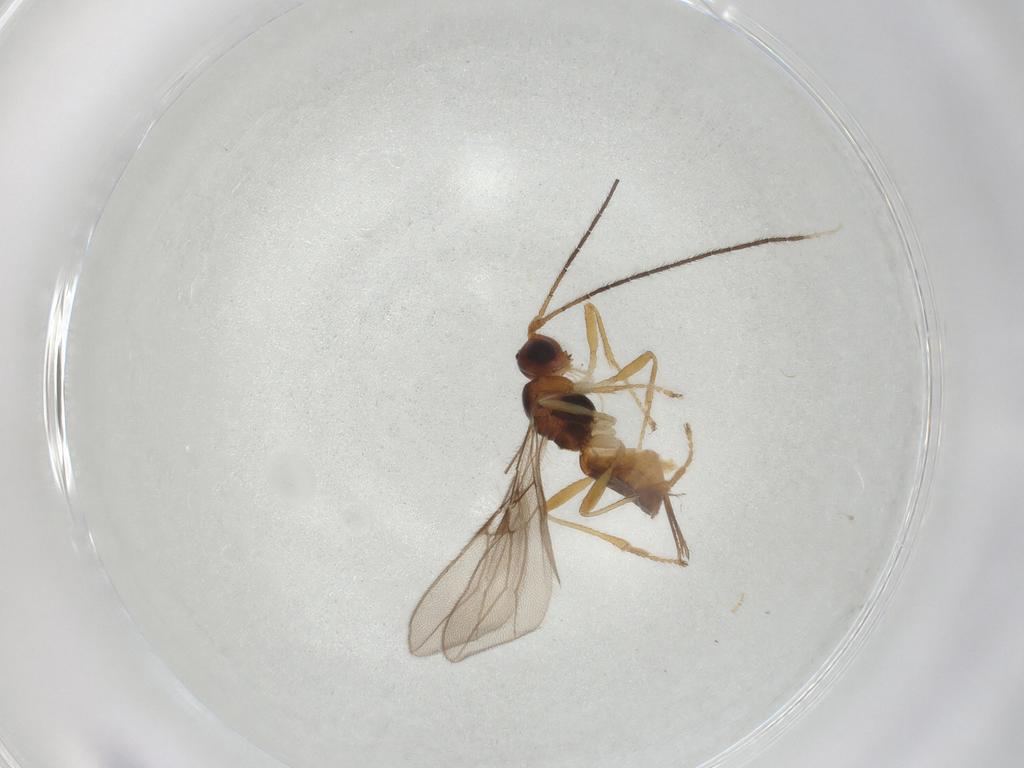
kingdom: Animalia
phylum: Arthropoda
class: Insecta
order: Hymenoptera
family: Braconidae
